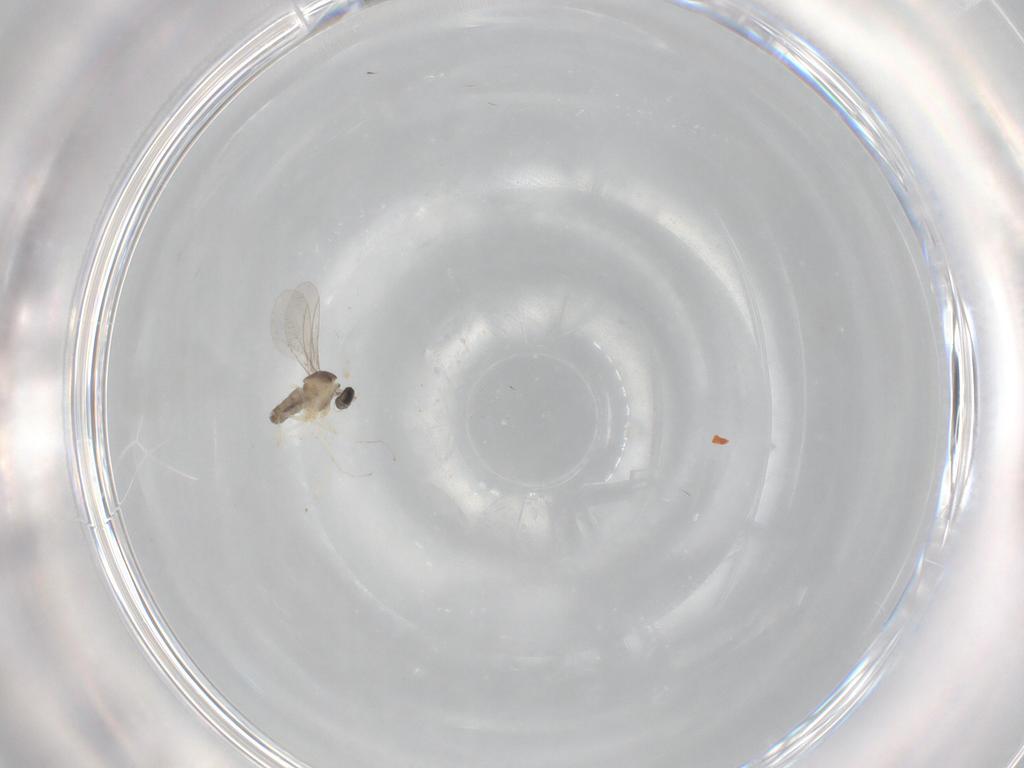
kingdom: Animalia
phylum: Arthropoda
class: Insecta
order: Diptera
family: Cecidomyiidae
